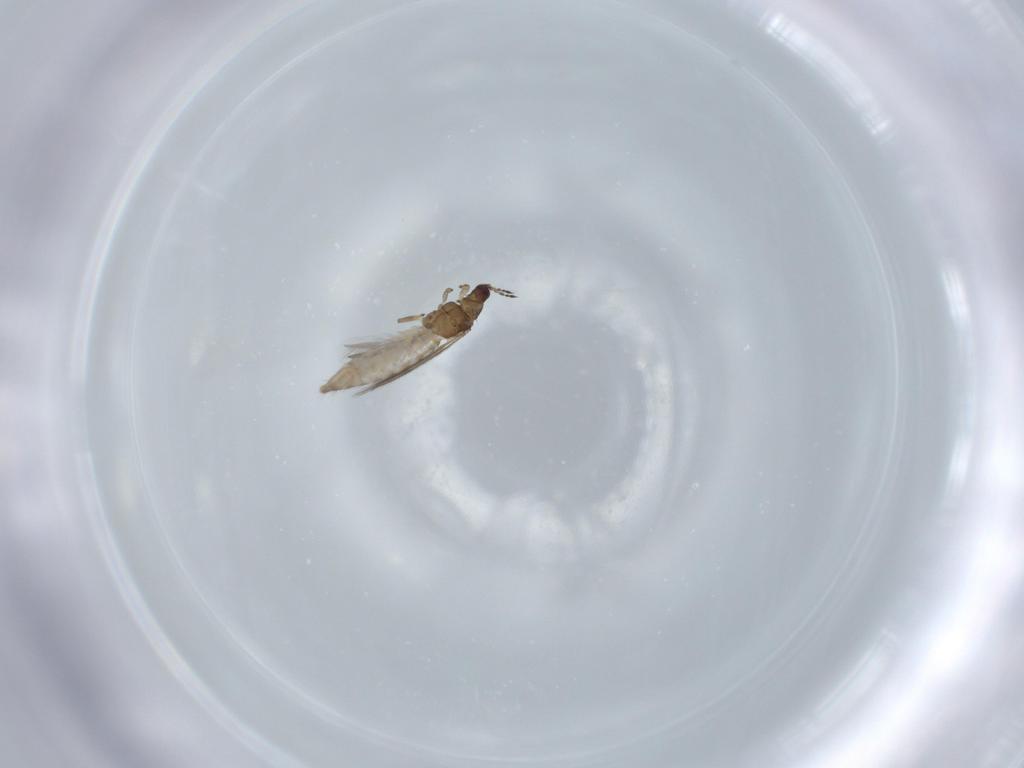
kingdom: Animalia
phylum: Arthropoda
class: Insecta
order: Thysanoptera
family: Thripidae
